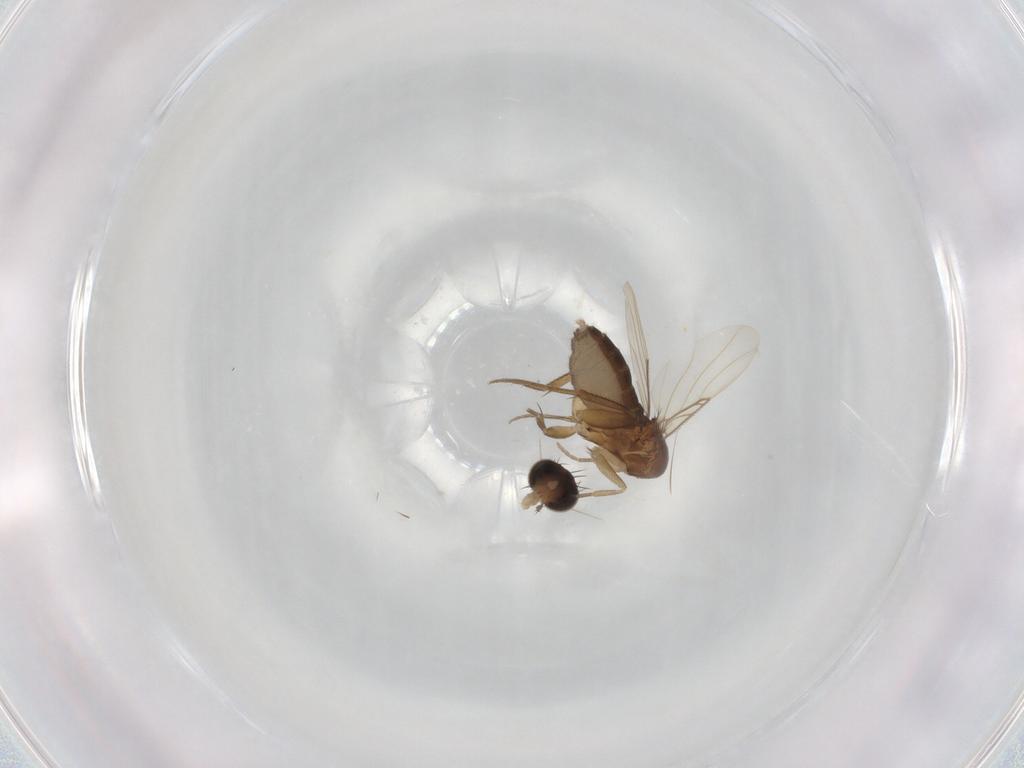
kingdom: Animalia
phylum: Arthropoda
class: Insecta
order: Diptera
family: Phoridae
